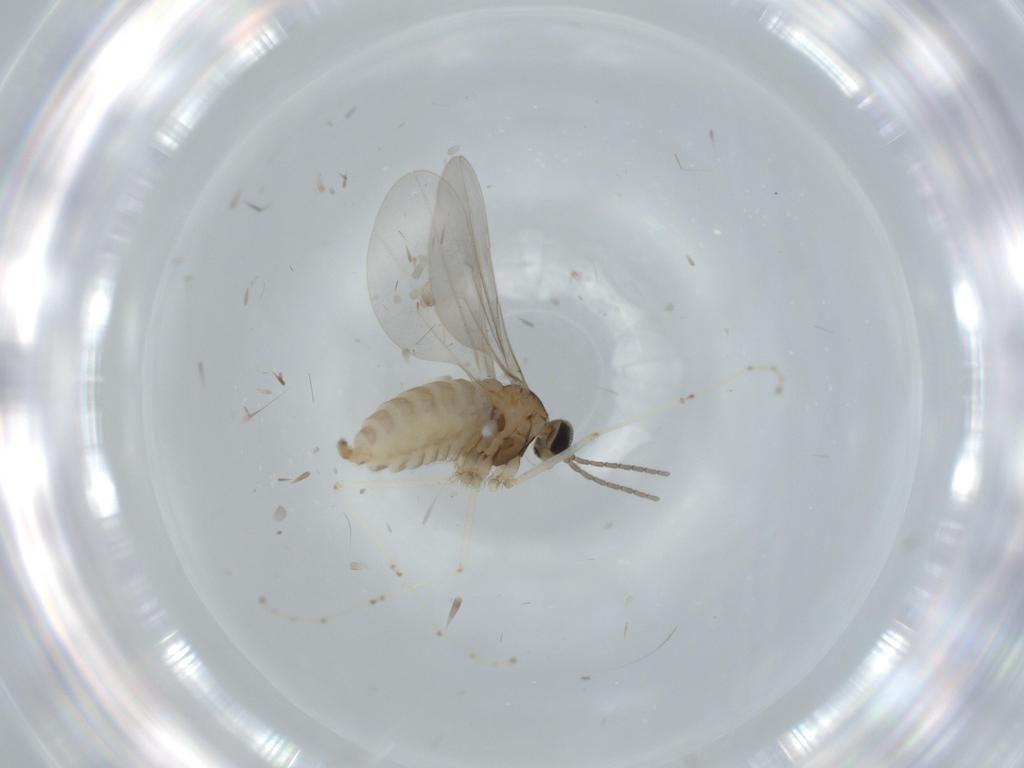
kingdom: Animalia
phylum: Arthropoda
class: Insecta
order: Diptera
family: Cecidomyiidae
